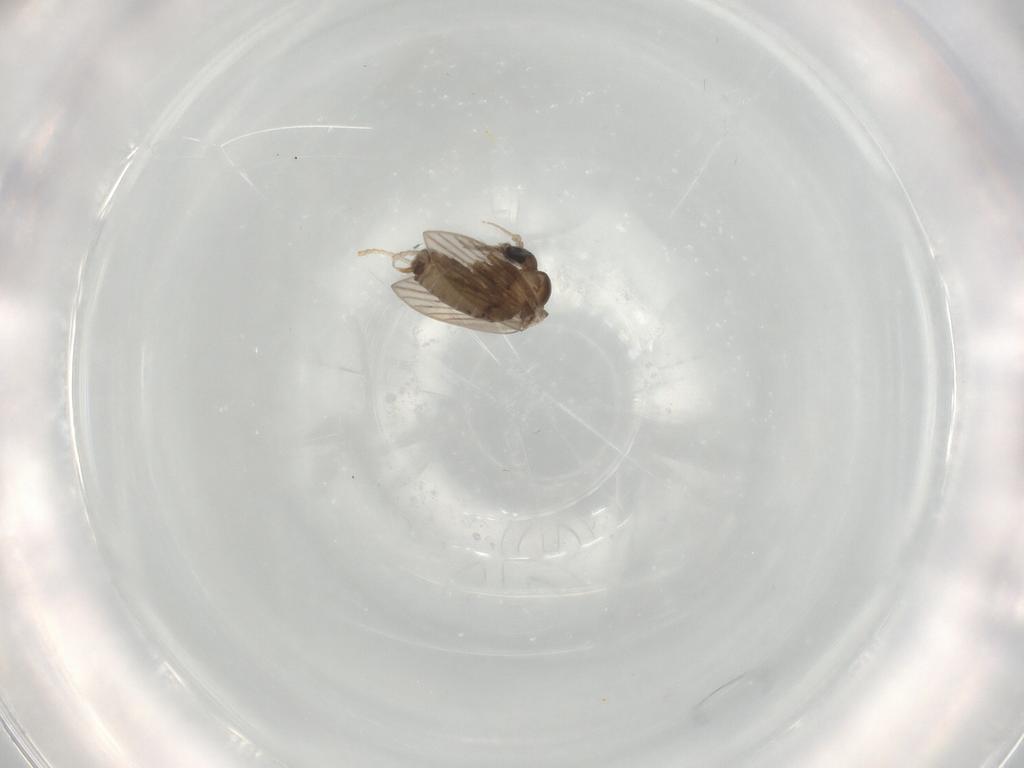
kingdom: Animalia
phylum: Arthropoda
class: Insecta
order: Diptera
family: Psychodidae
